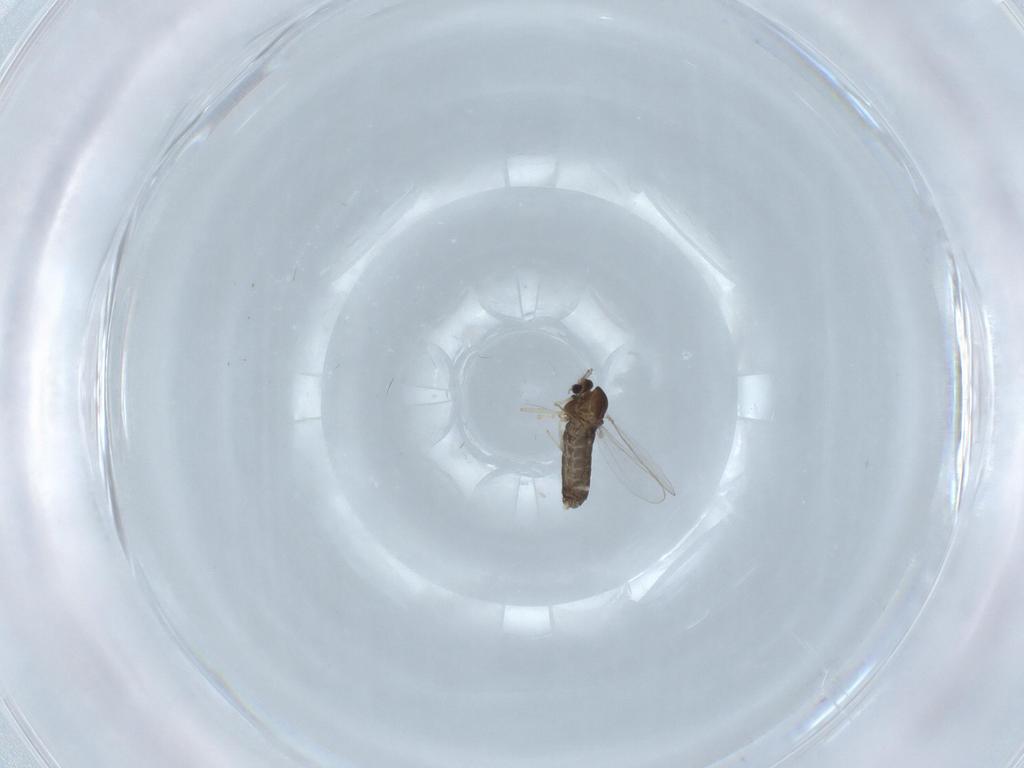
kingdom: Animalia
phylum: Arthropoda
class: Insecta
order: Diptera
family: Chironomidae
